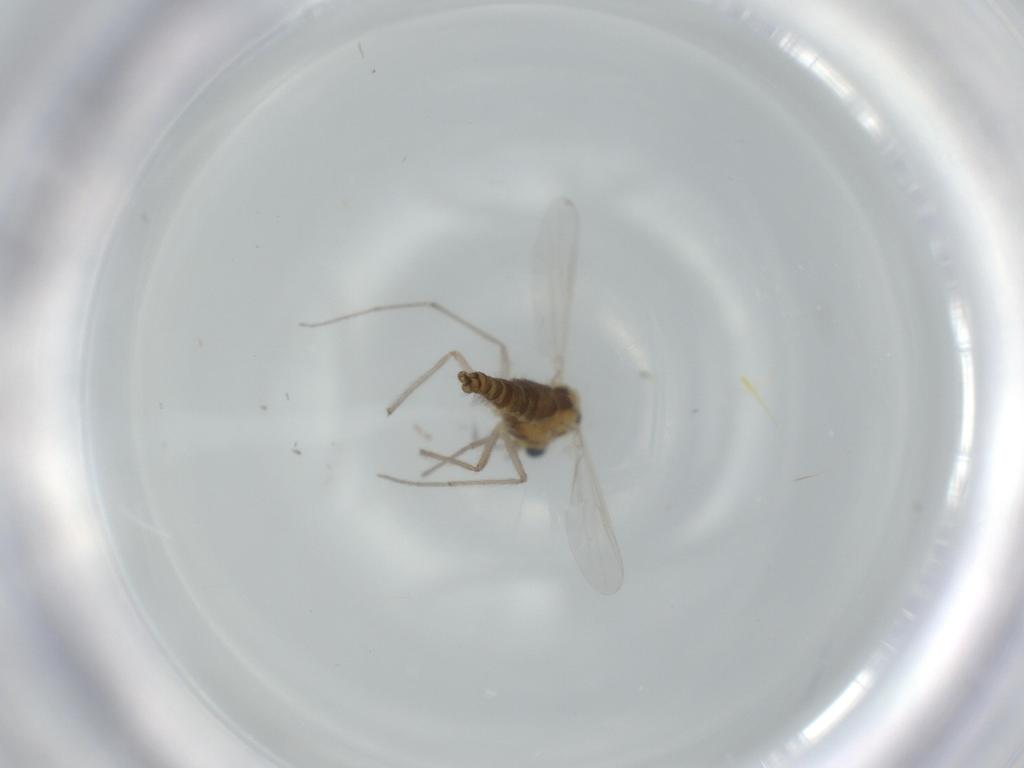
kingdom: Animalia
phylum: Arthropoda
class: Insecta
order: Diptera
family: Chironomidae
